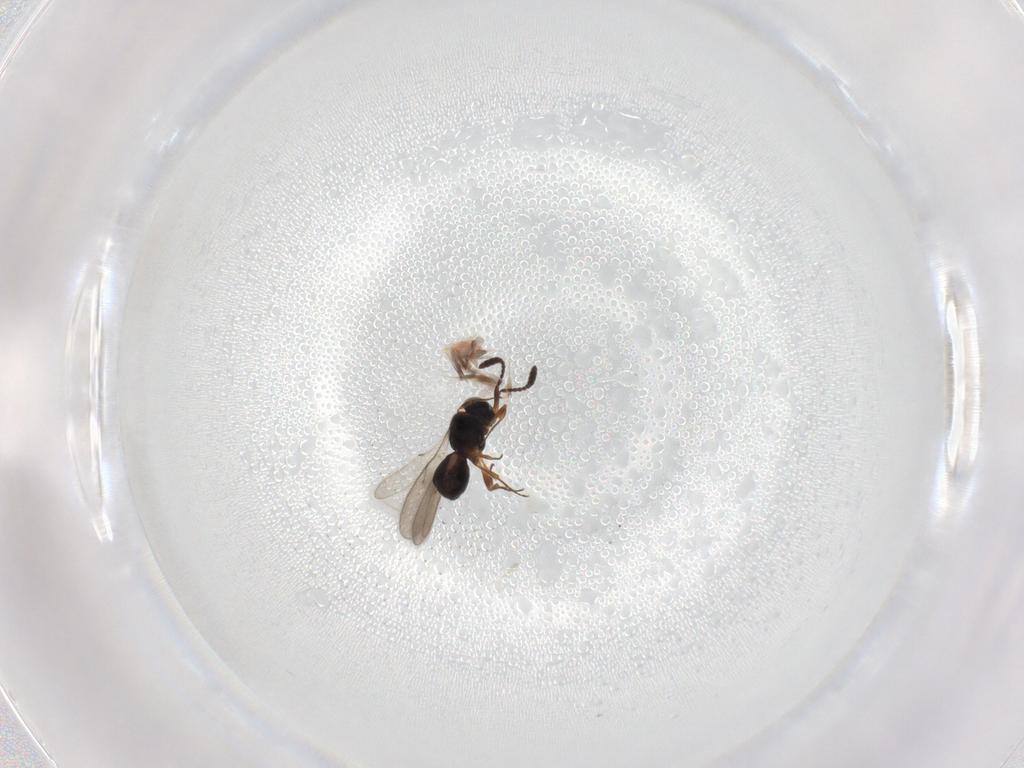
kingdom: Animalia
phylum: Arthropoda
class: Insecta
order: Hymenoptera
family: Scelionidae
